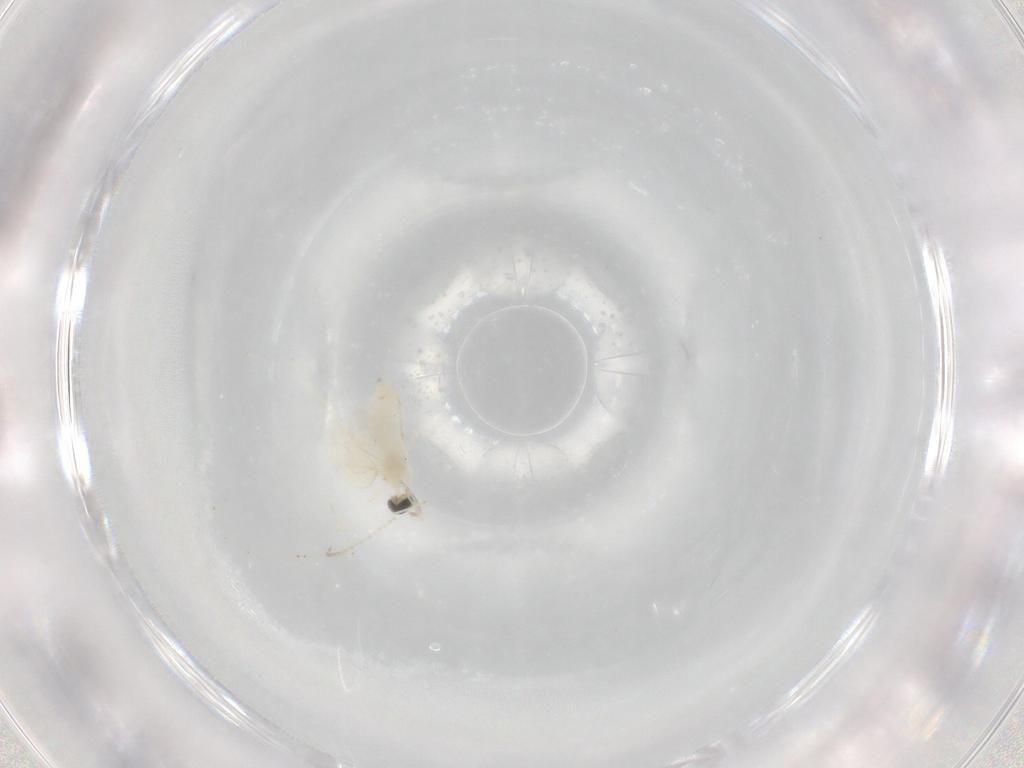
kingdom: Animalia
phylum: Arthropoda
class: Insecta
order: Diptera
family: Cecidomyiidae
